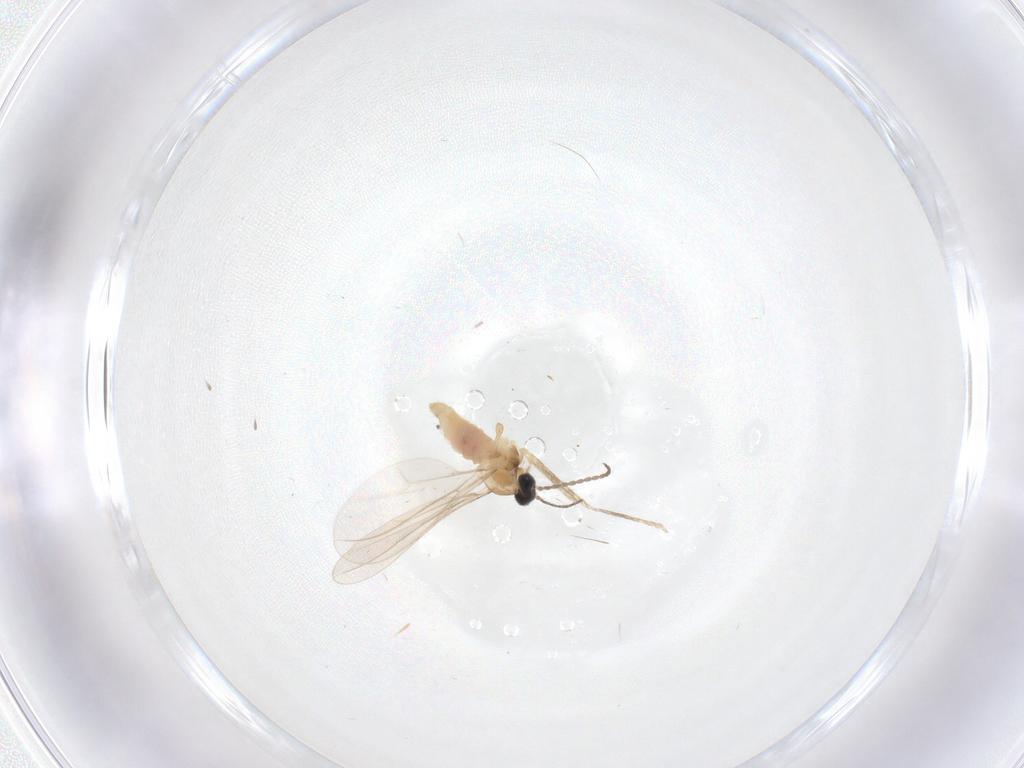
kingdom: Animalia
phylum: Arthropoda
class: Insecta
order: Diptera
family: Cecidomyiidae
